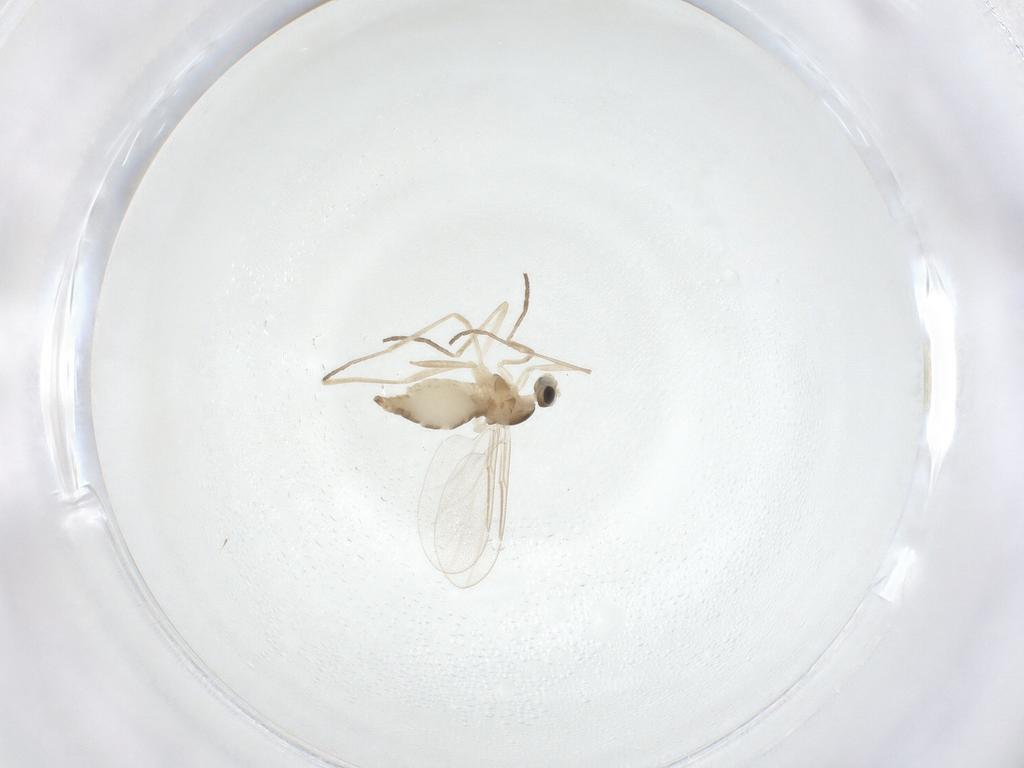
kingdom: Animalia
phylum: Arthropoda
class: Insecta
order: Diptera
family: Cecidomyiidae
